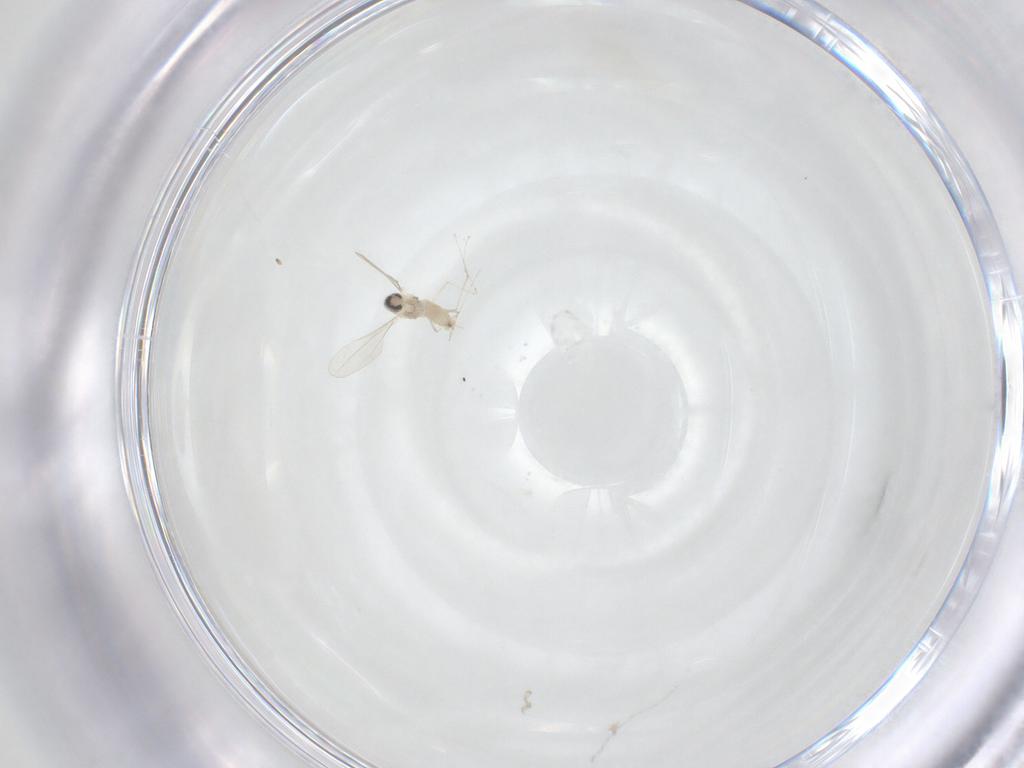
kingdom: Animalia
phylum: Arthropoda
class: Insecta
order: Diptera
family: Cecidomyiidae
